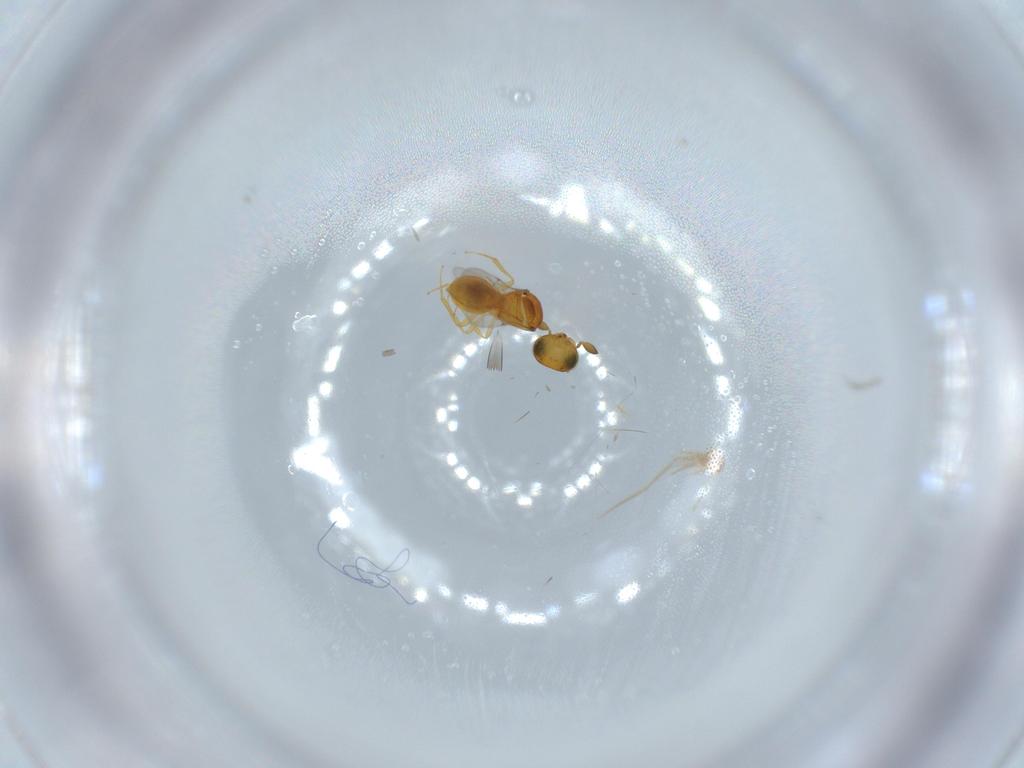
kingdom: Animalia
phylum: Arthropoda
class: Insecta
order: Hymenoptera
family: Scelionidae
